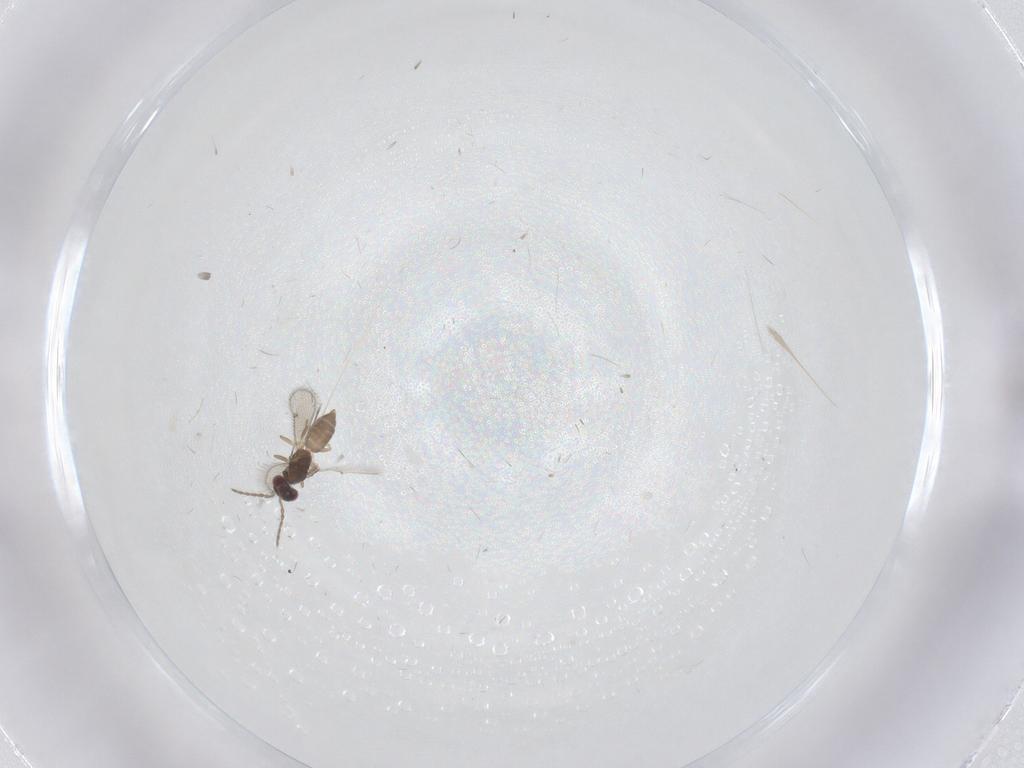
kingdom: Animalia
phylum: Arthropoda
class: Insecta
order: Hymenoptera
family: Eulophidae
